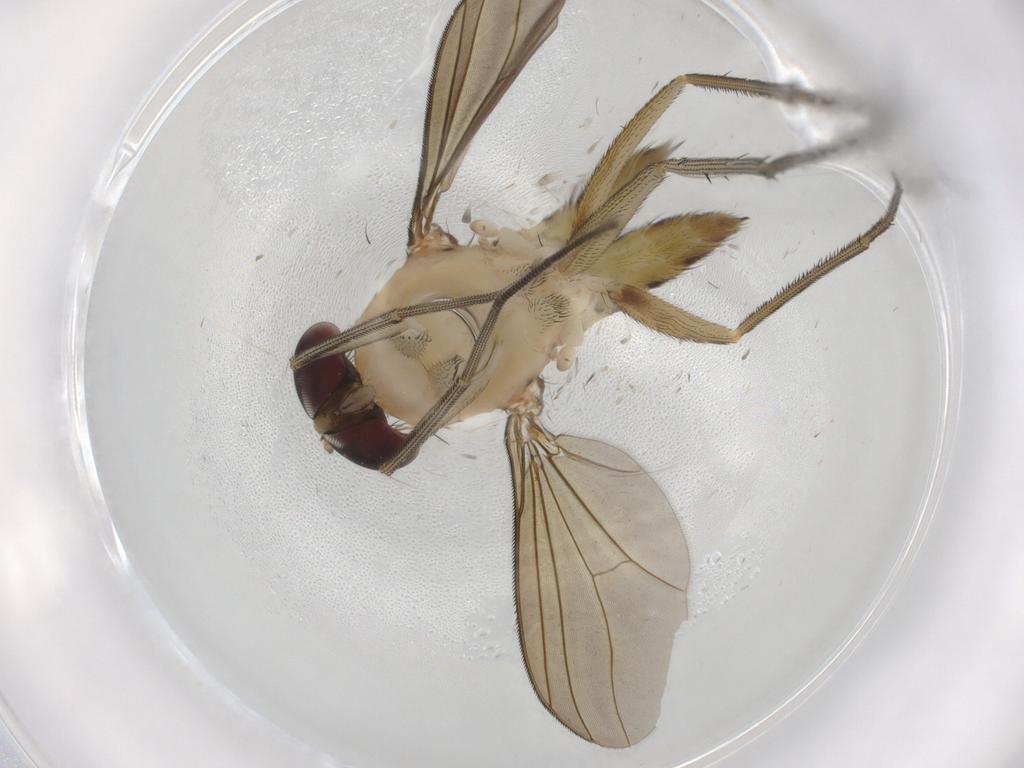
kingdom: Animalia
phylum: Arthropoda
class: Insecta
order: Diptera
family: Dolichopodidae
